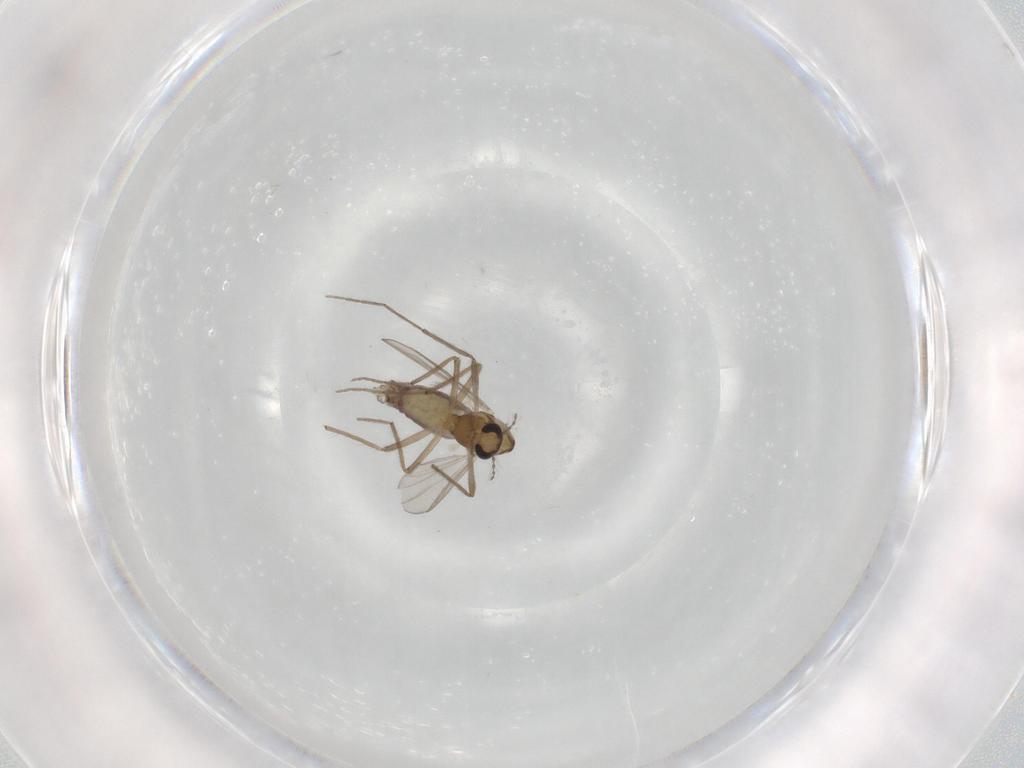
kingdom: Animalia
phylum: Arthropoda
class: Insecta
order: Diptera
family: Chironomidae
